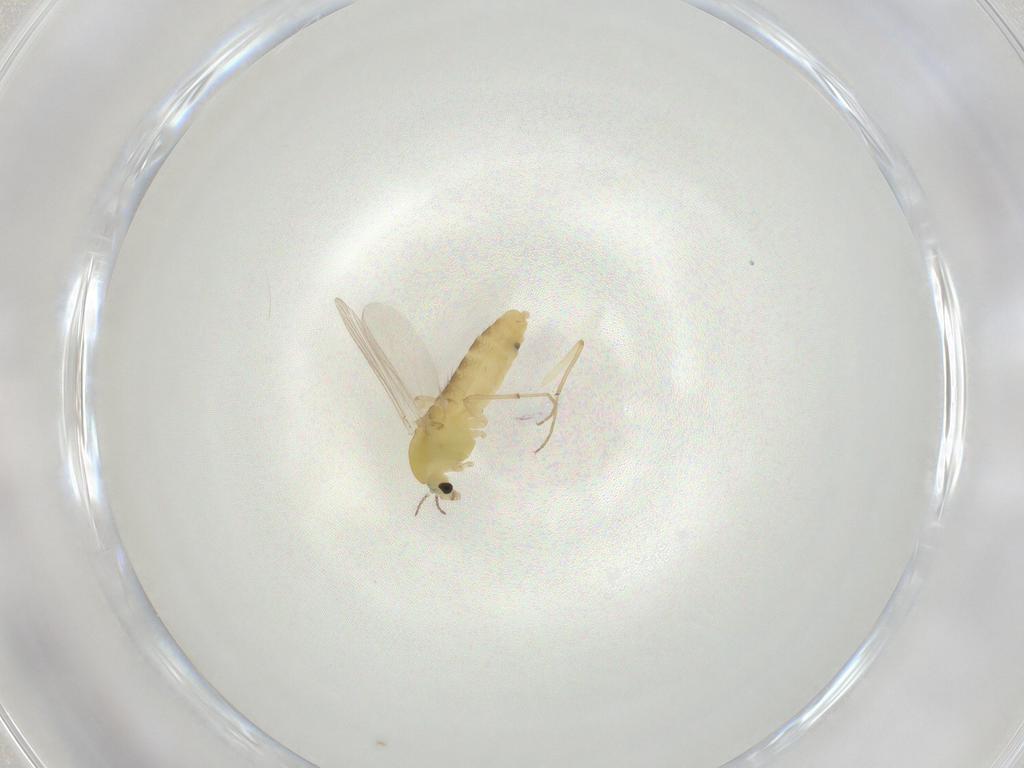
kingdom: Animalia
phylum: Arthropoda
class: Insecta
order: Diptera
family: Chironomidae
